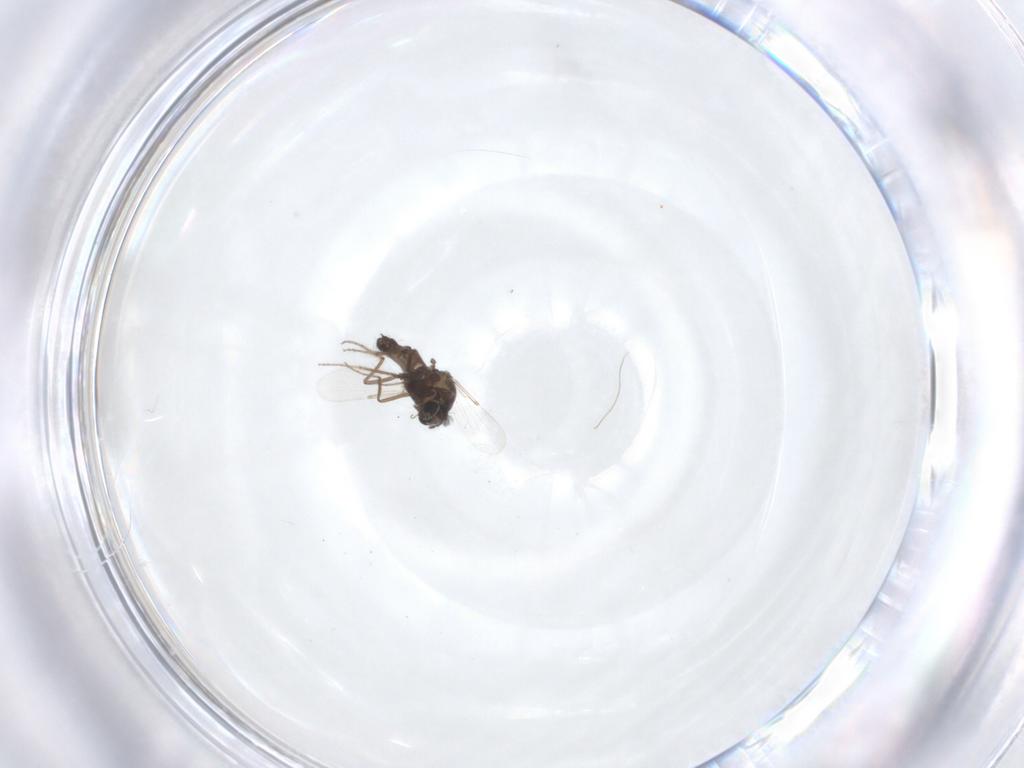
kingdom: Animalia
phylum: Arthropoda
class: Insecta
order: Diptera
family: Ceratopogonidae
